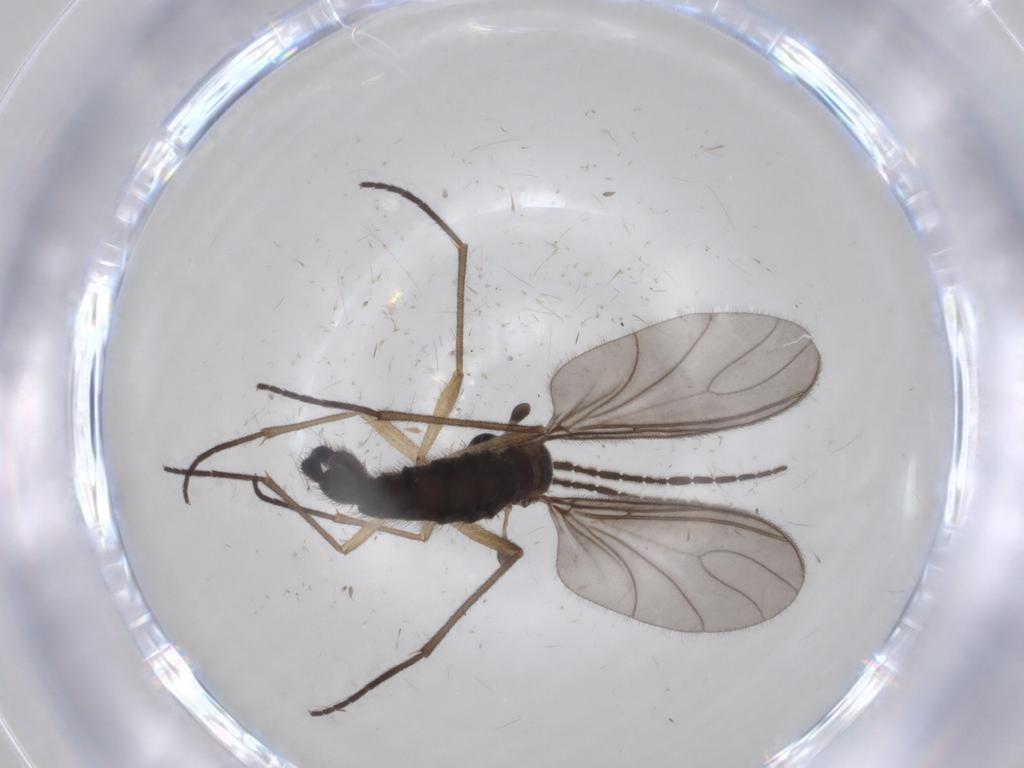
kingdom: Animalia
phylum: Arthropoda
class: Insecta
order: Diptera
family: Sciaridae
